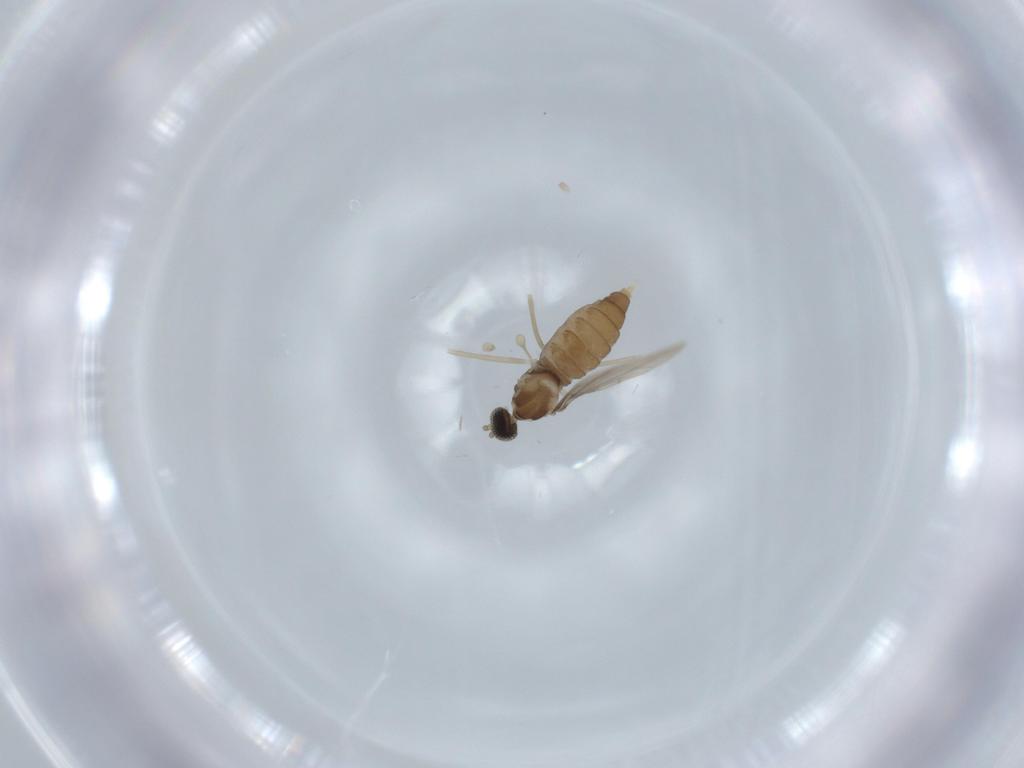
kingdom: Animalia
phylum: Arthropoda
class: Insecta
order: Diptera
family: Cecidomyiidae
